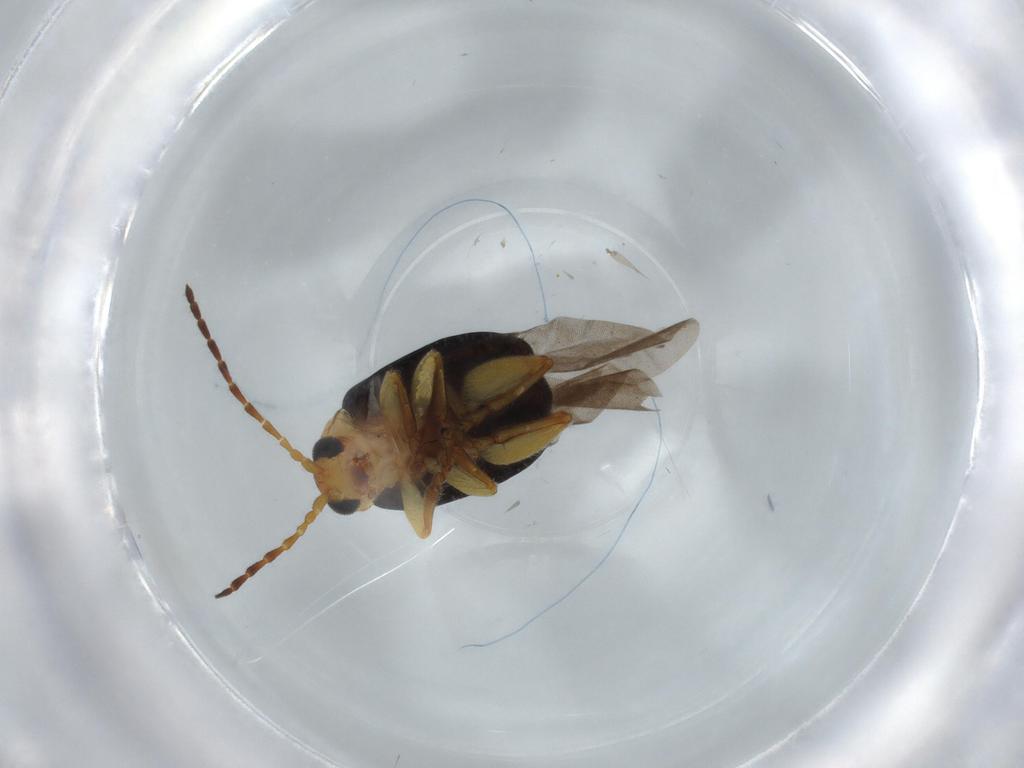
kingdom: Animalia
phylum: Arthropoda
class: Insecta
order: Coleoptera
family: Chrysomelidae
